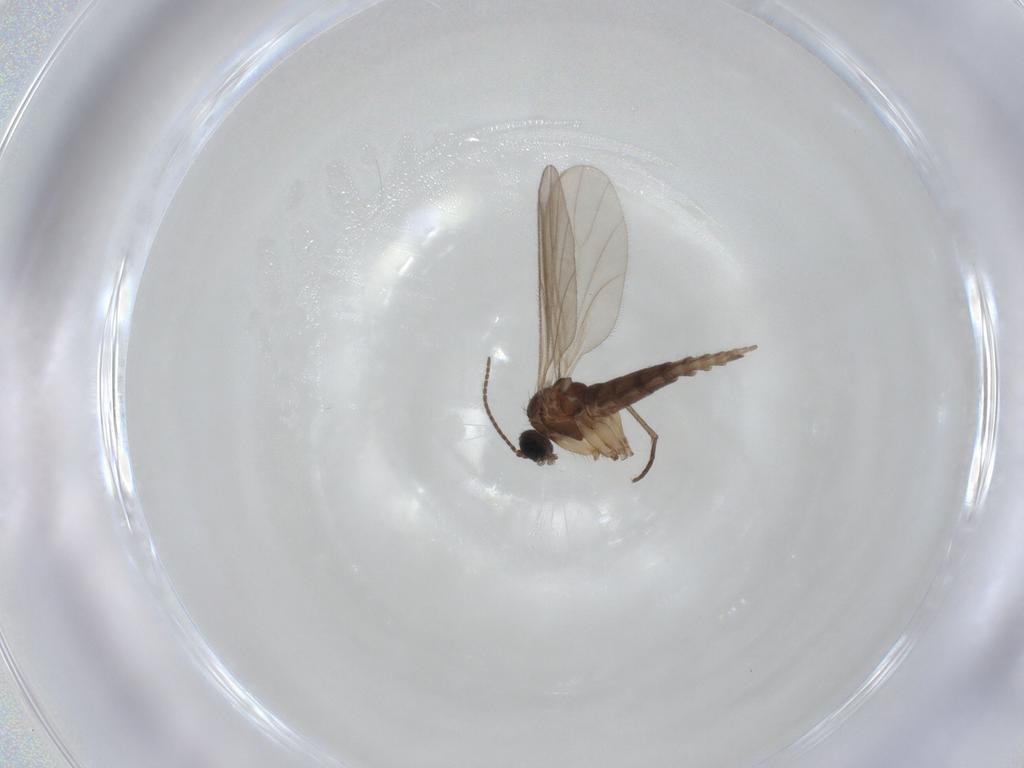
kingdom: Animalia
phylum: Arthropoda
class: Insecta
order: Diptera
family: Sciaridae
